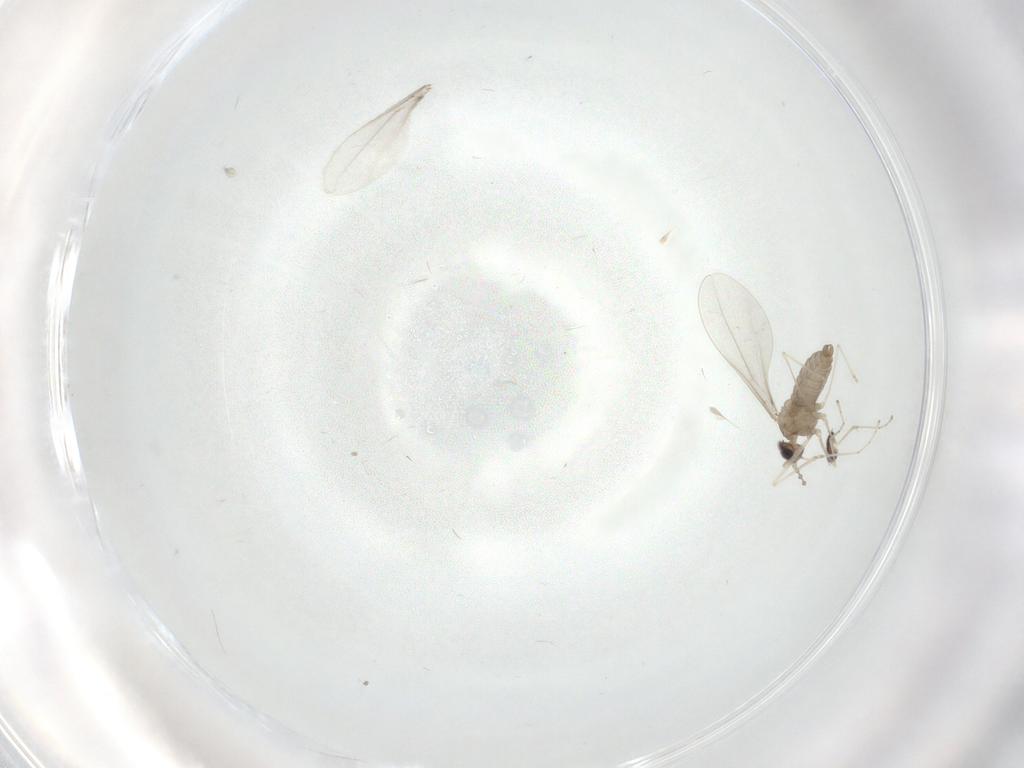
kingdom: Animalia
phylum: Arthropoda
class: Insecta
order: Diptera
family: Cecidomyiidae
